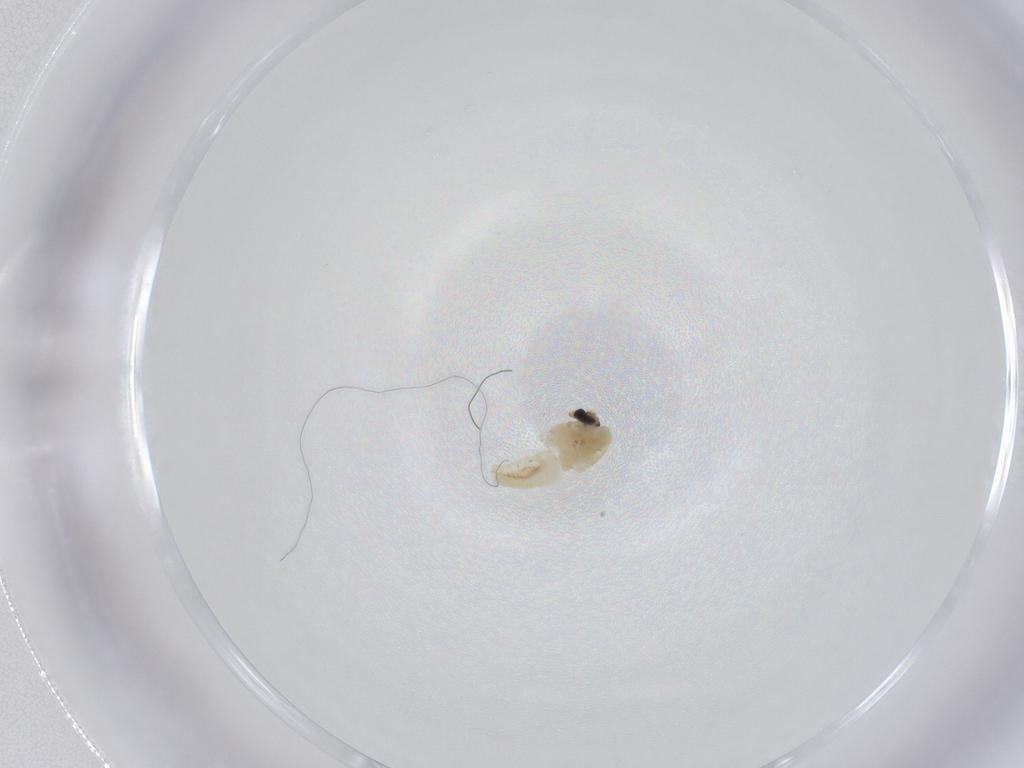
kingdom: Animalia
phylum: Arthropoda
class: Insecta
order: Diptera
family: Chironomidae
